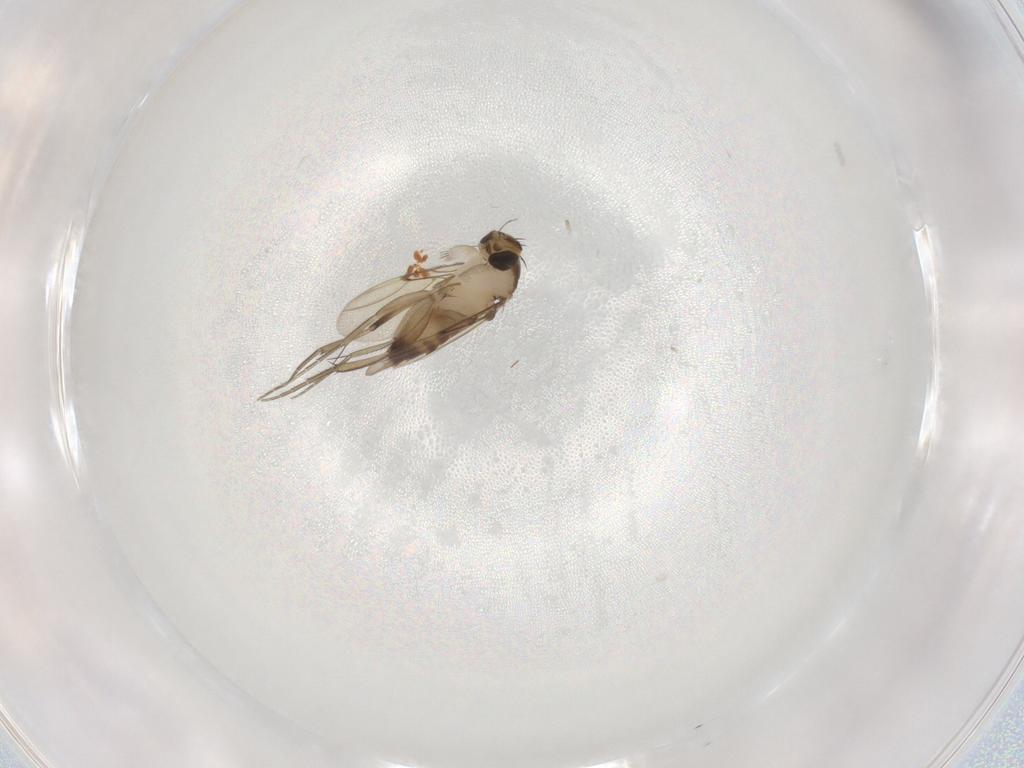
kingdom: Animalia
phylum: Arthropoda
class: Insecta
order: Diptera
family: Phoridae
